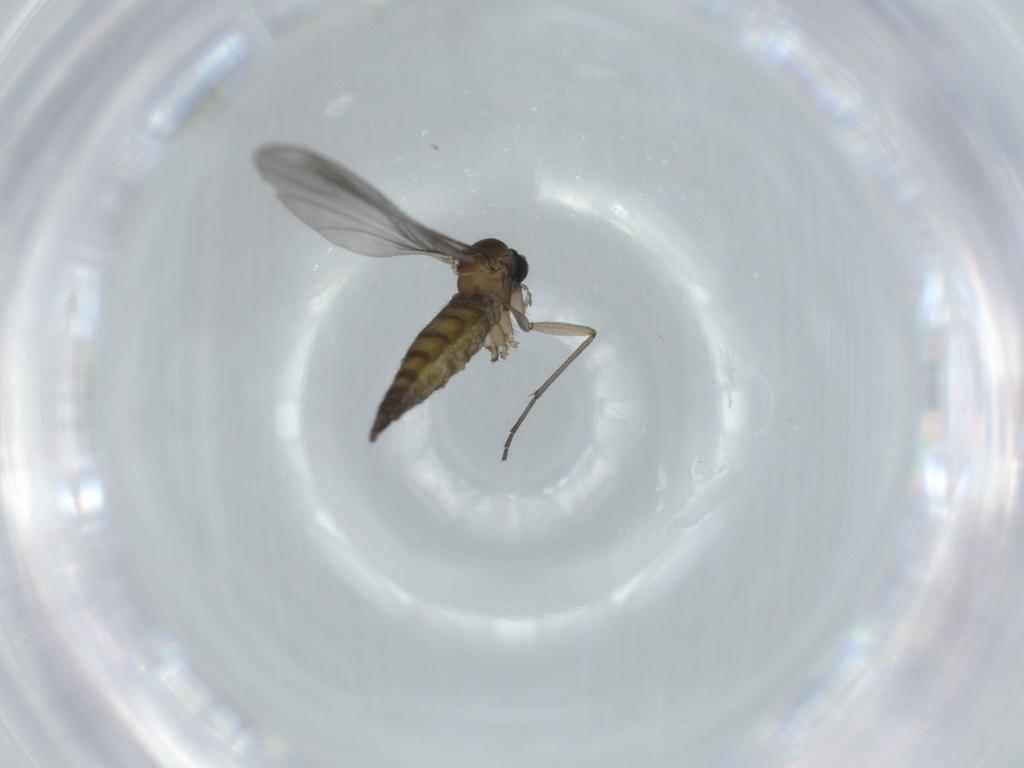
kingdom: Animalia
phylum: Arthropoda
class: Insecta
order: Diptera
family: Sciaridae
